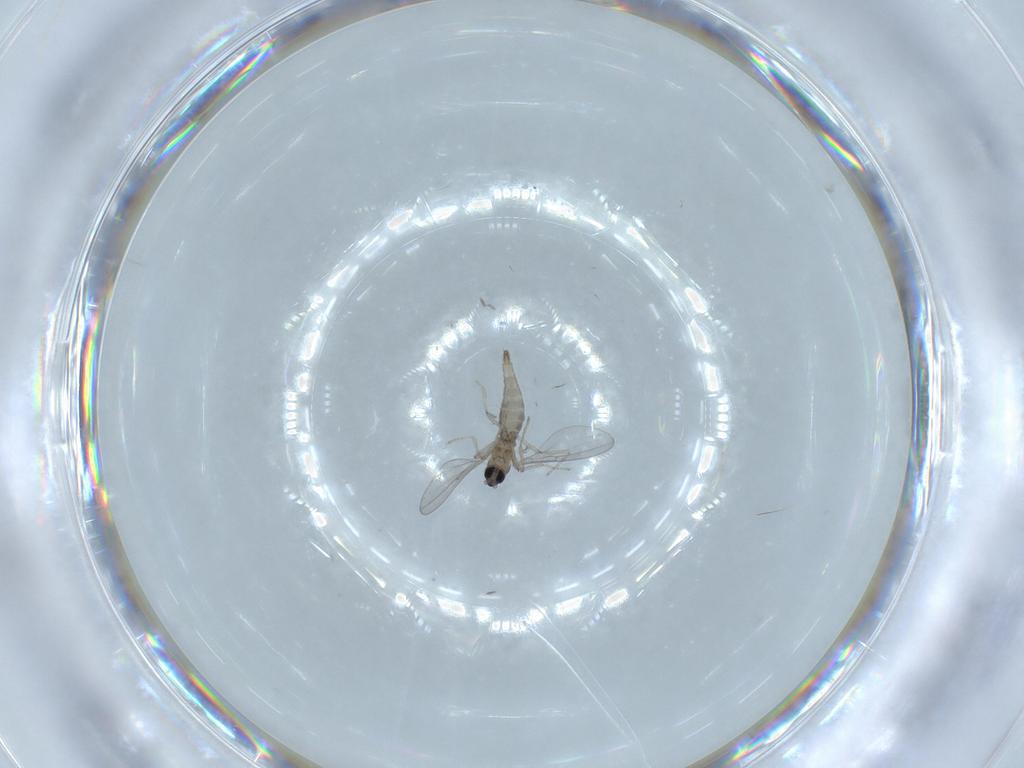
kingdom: Animalia
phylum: Arthropoda
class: Insecta
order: Diptera
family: Cecidomyiidae
